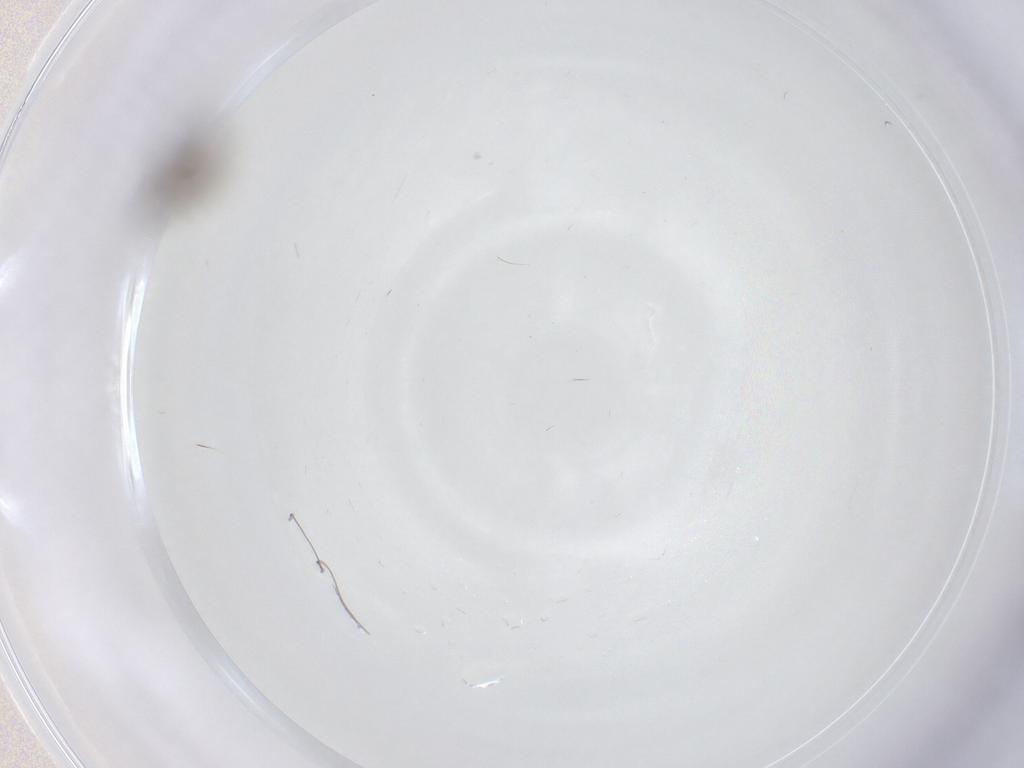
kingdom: Animalia
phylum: Arthropoda
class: Insecta
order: Diptera
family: Cecidomyiidae
